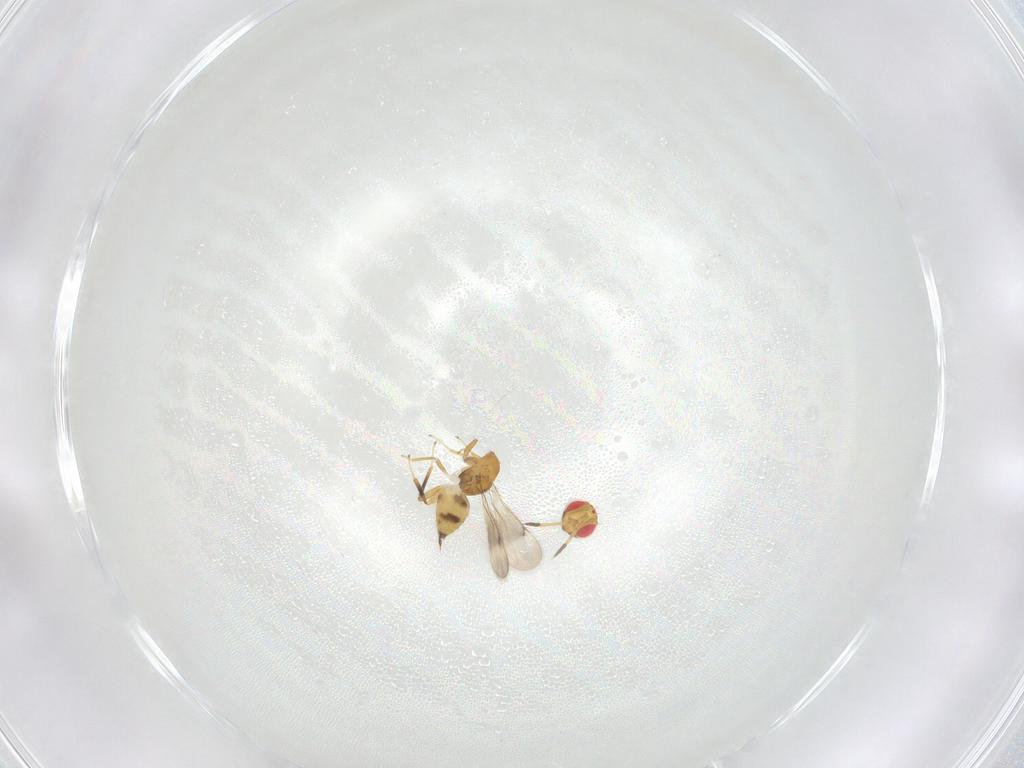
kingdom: Animalia
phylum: Arthropoda
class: Insecta
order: Hymenoptera
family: Eulophidae
